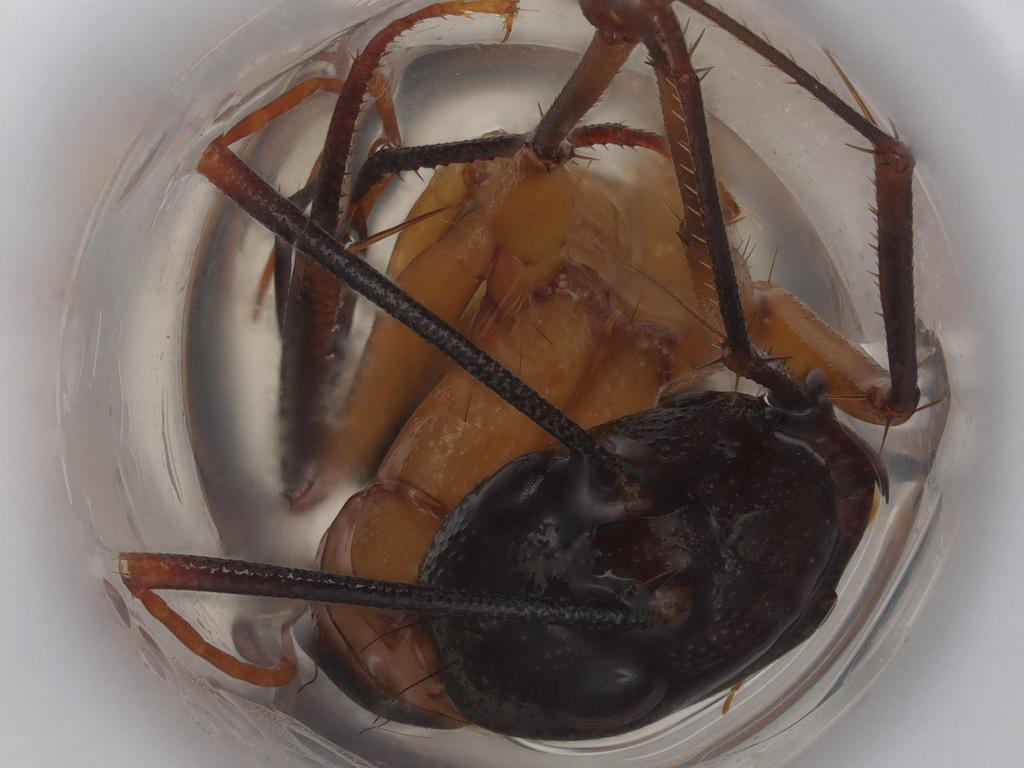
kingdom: Animalia
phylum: Arthropoda
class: Insecta
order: Hymenoptera
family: Formicidae
